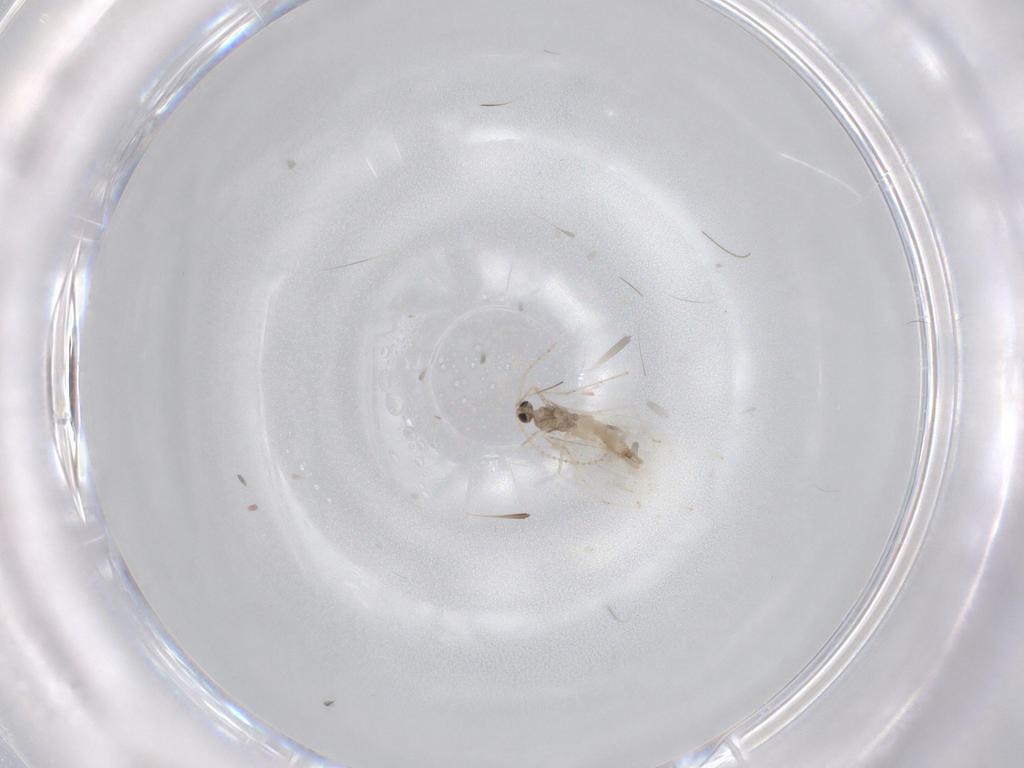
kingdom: Animalia
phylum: Arthropoda
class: Insecta
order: Diptera
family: Cecidomyiidae
